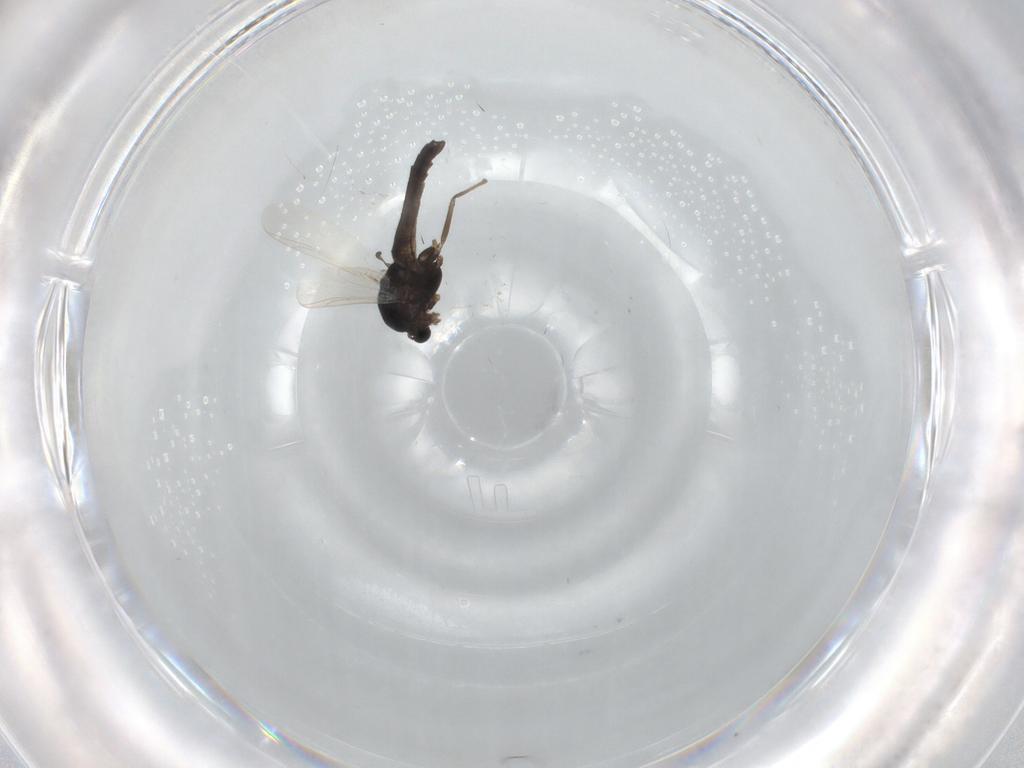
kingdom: Animalia
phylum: Arthropoda
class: Insecta
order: Diptera
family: Chironomidae
